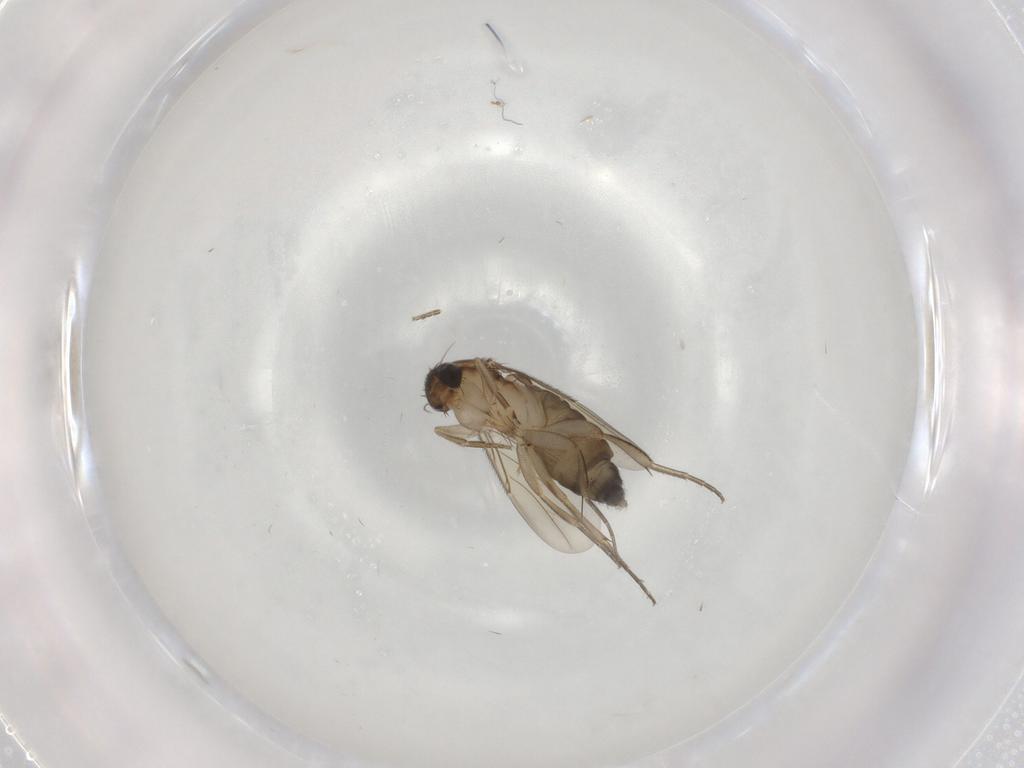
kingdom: Animalia
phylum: Arthropoda
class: Insecta
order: Diptera
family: Phoridae
